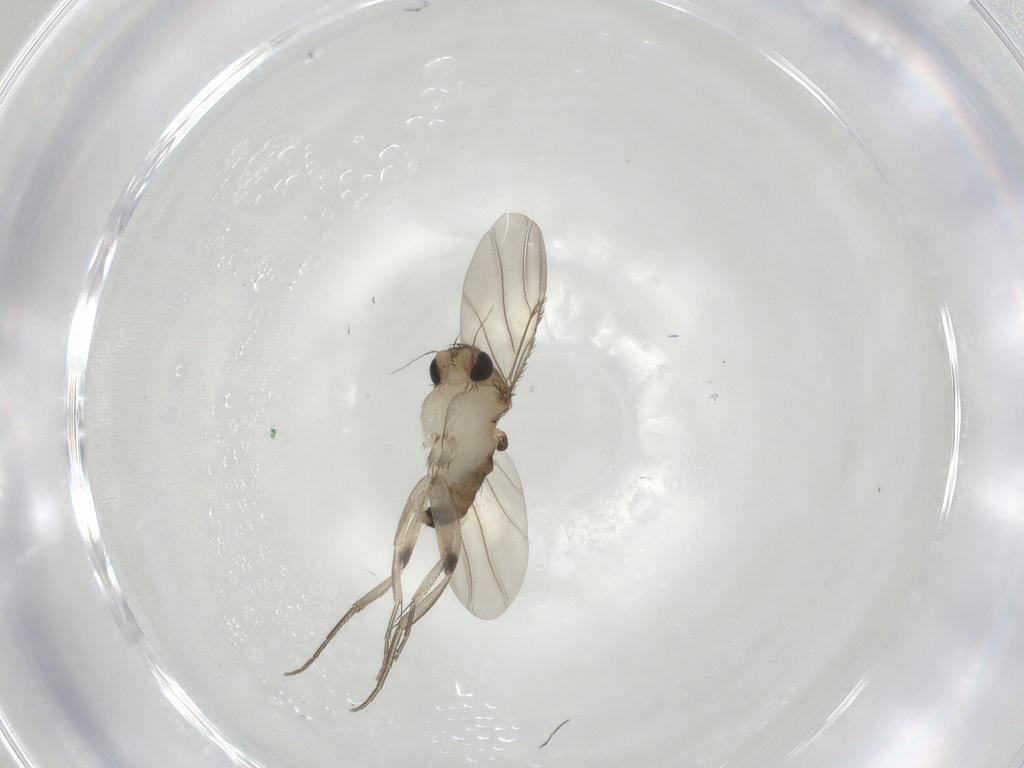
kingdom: Animalia
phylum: Arthropoda
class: Insecta
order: Diptera
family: Phoridae
